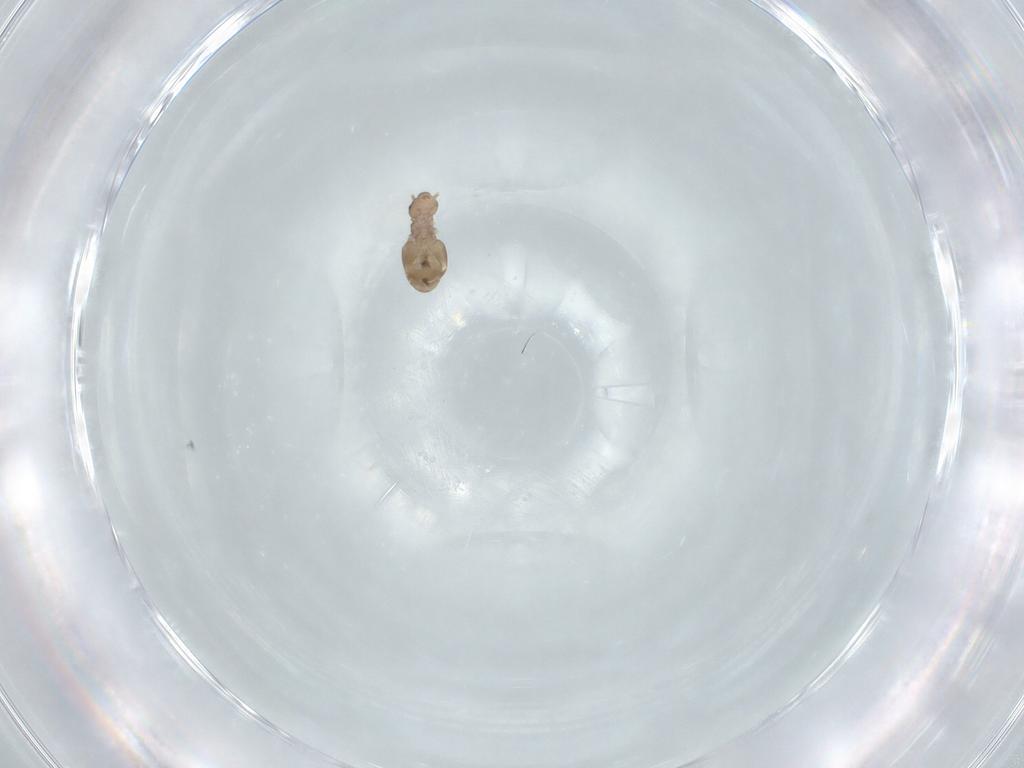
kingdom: Animalia
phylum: Arthropoda
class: Insecta
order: Psocodea
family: Liposcelididae
